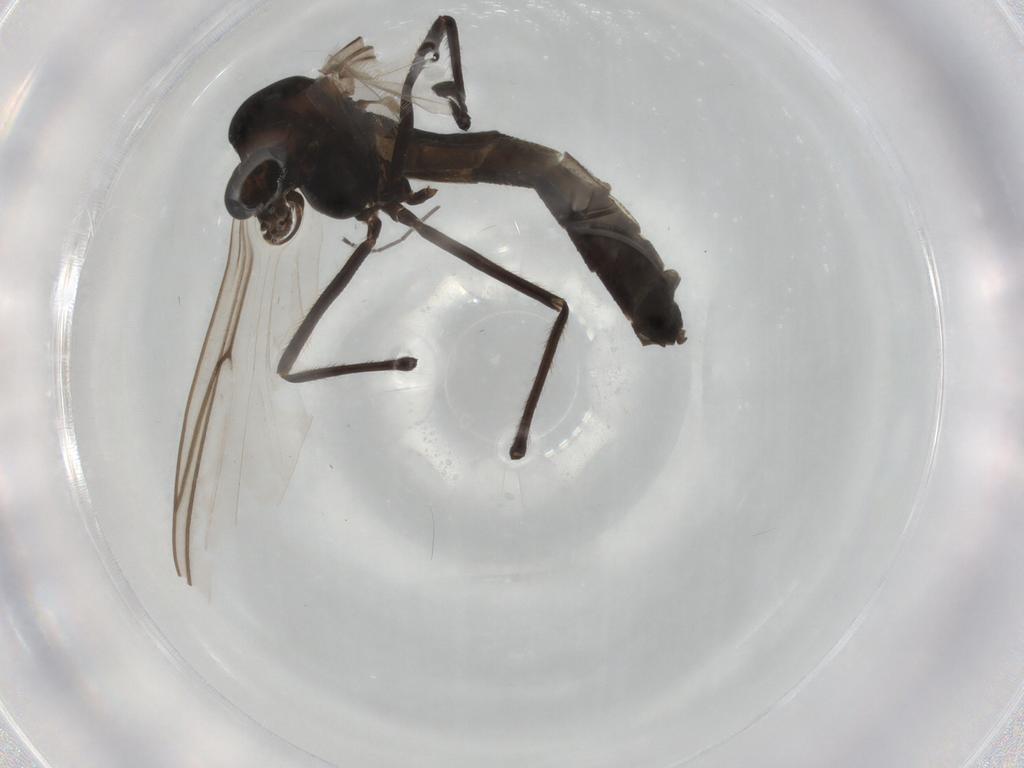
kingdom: Animalia
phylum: Arthropoda
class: Insecta
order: Diptera
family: Chironomidae
